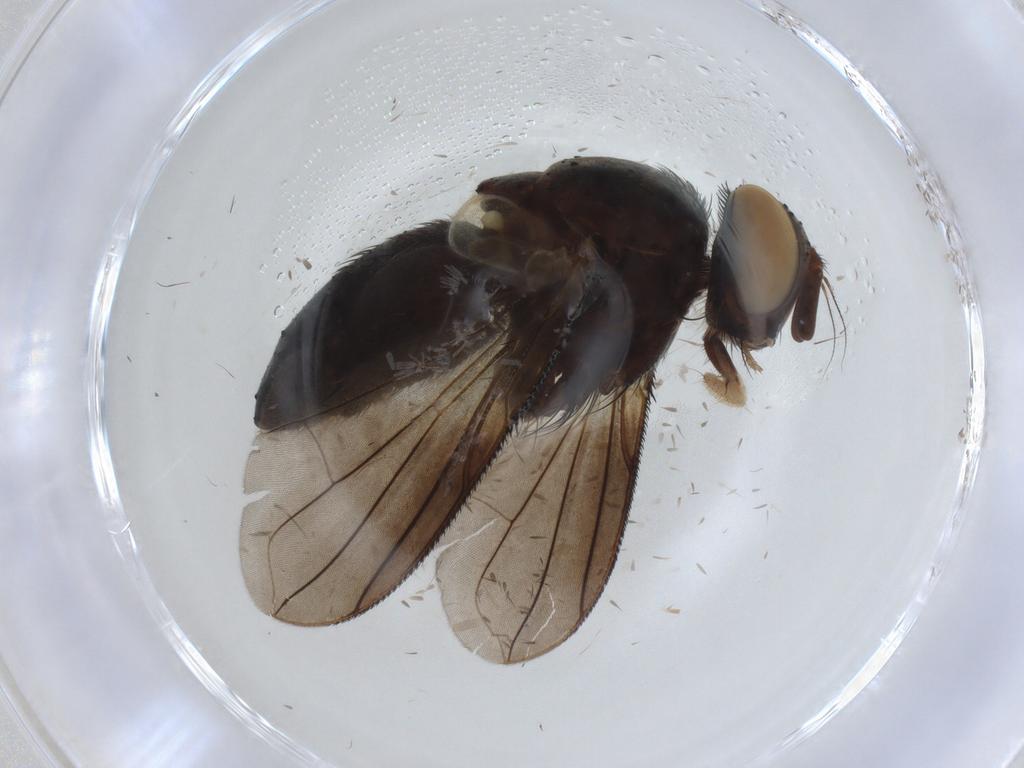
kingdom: Animalia
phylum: Arthropoda
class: Insecta
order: Diptera
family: Tachinidae
